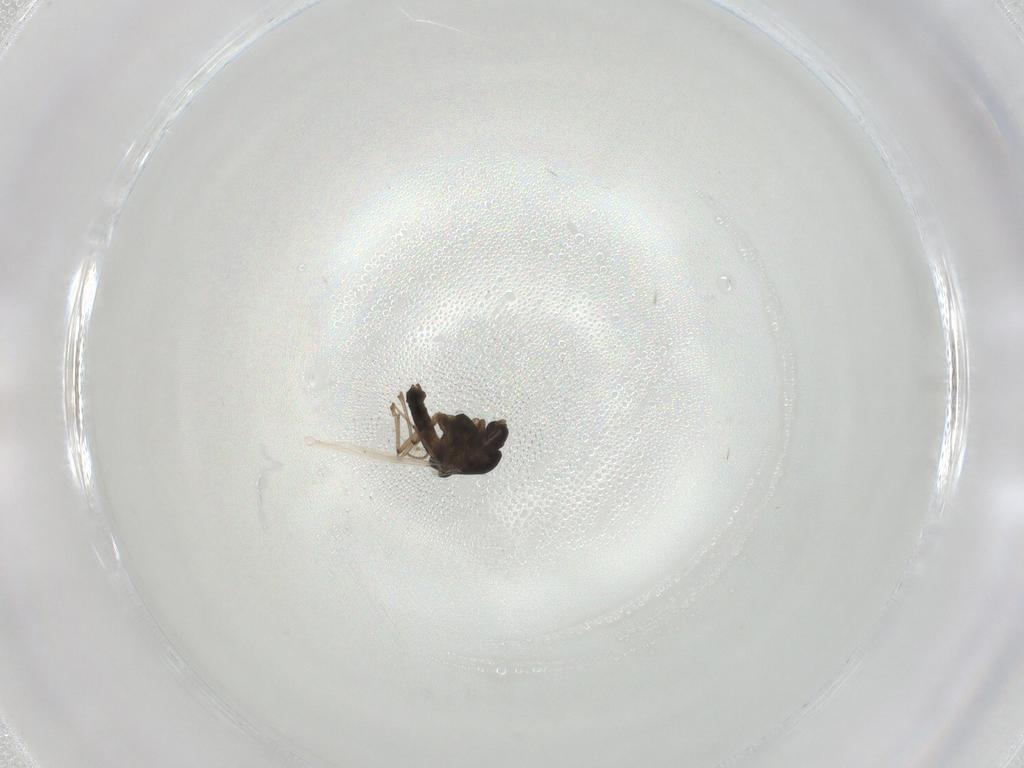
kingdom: Animalia
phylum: Arthropoda
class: Insecta
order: Diptera
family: Chironomidae
